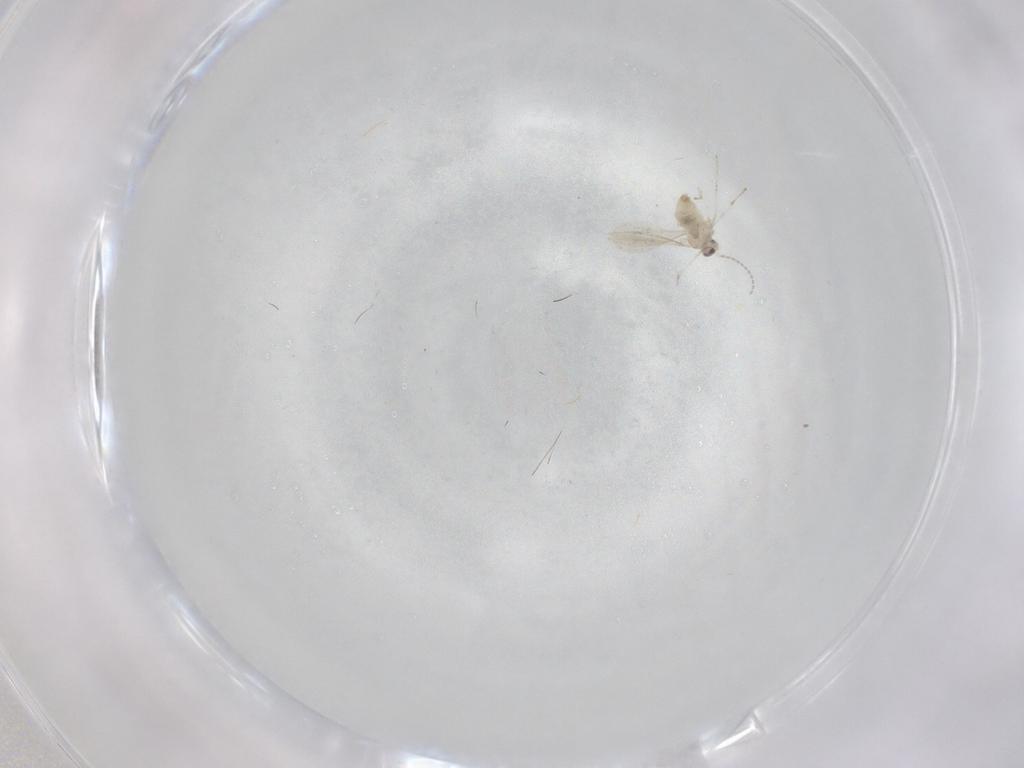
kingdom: Animalia
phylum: Arthropoda
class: Insecta
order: Diptera
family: Cecidomyiidae
